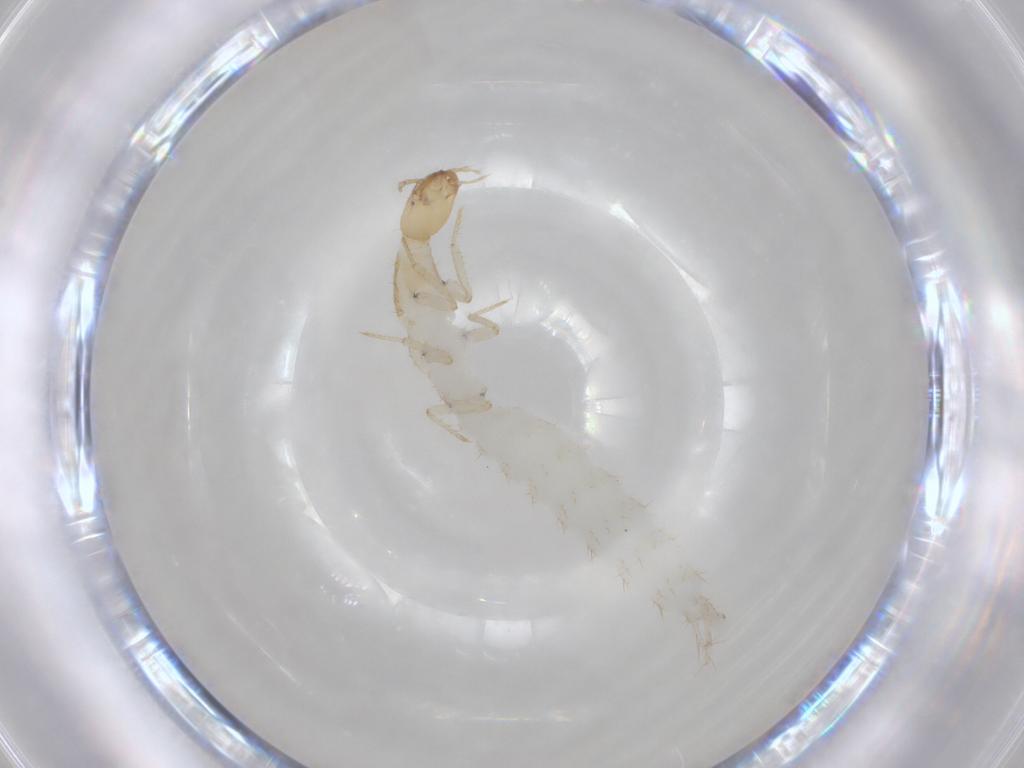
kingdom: Animalia
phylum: Arthropoda
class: Insecta
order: Coleoptera
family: Staphylinidae
